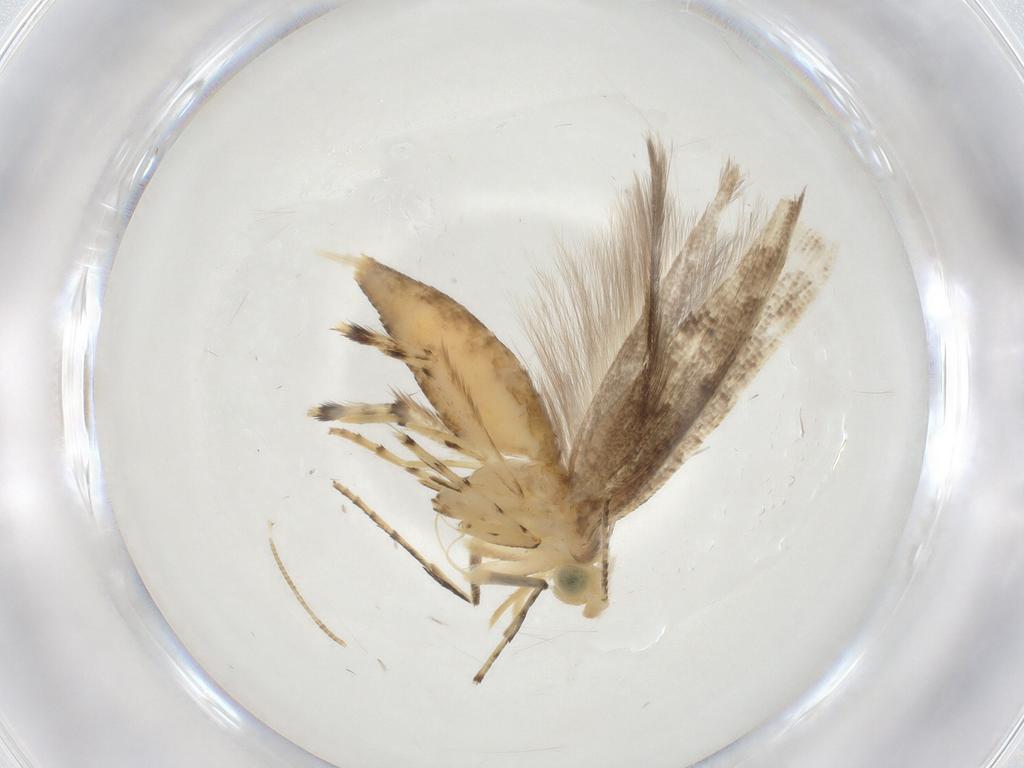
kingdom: Animalia
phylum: Arthropoda
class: Insecta
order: Lepidoptera
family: Argyresthiidae
